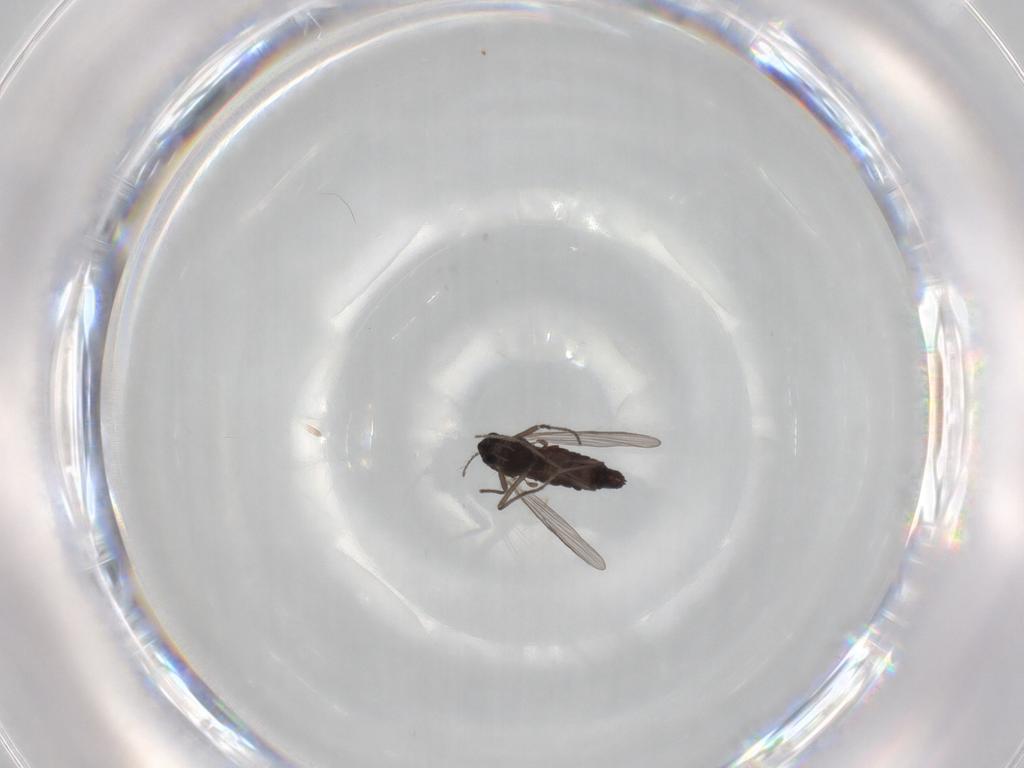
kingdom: Animalia
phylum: Arthropoda
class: Insecta
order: Diptera
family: Chironomidae
